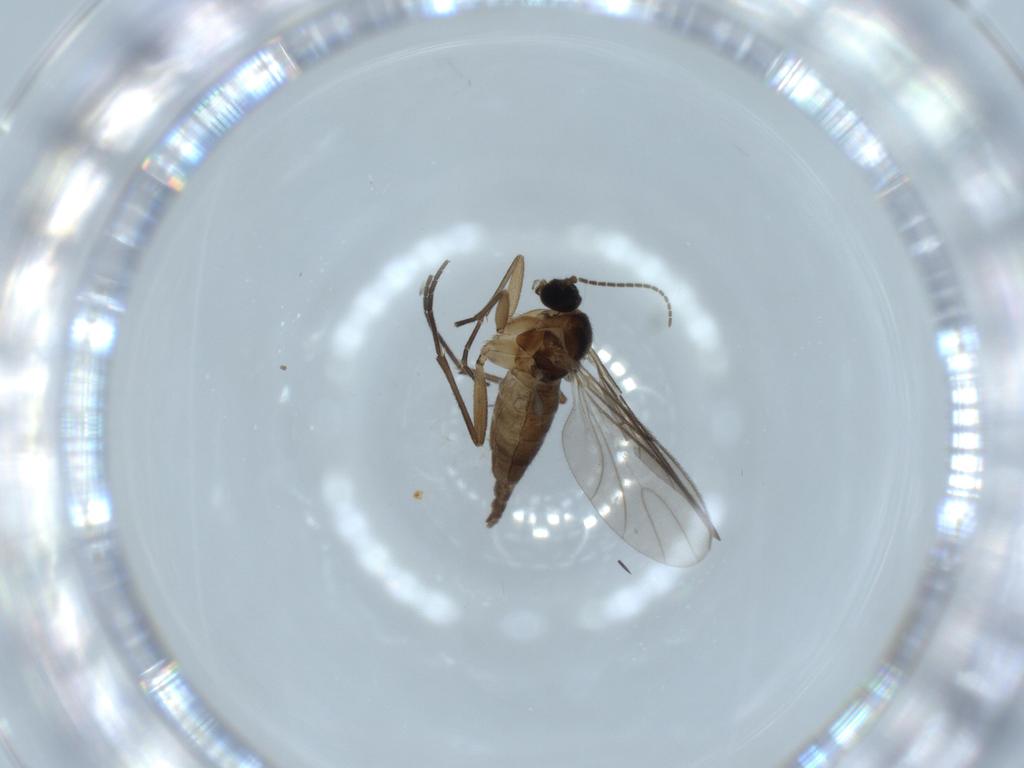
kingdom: Animalia
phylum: Arthropoda
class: Insecta
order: Diptera
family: Sciaridae
